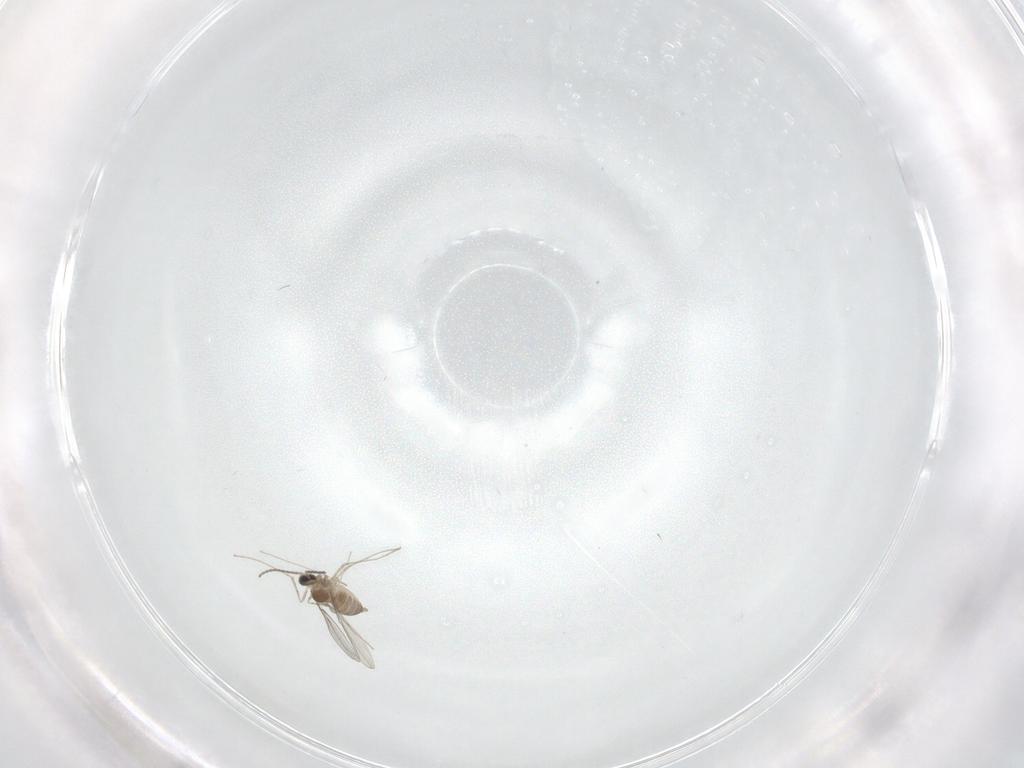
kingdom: Animalia
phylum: Arthropoda
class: Insecta
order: Diptera
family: Cecidomyiidae
